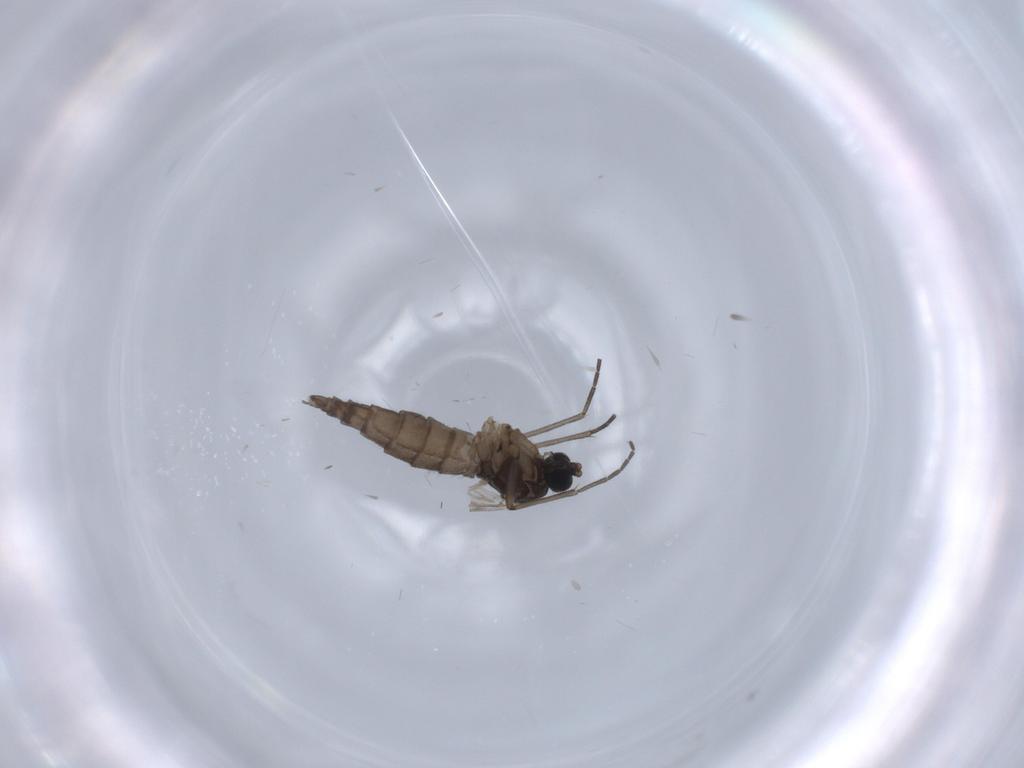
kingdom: Animalia
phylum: Arthropoda
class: Insecta
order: Diptera
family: Sciaridae
